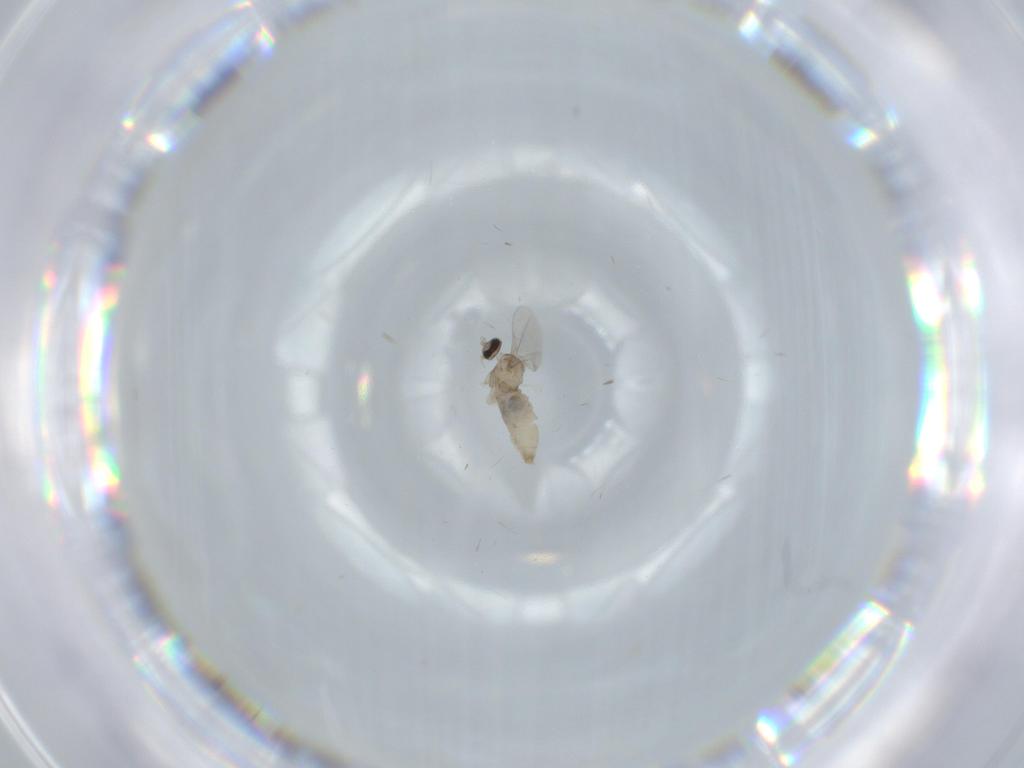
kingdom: Animalia
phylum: Arthropoda
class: Insecta
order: Diptera
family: Cecidomyiidae
